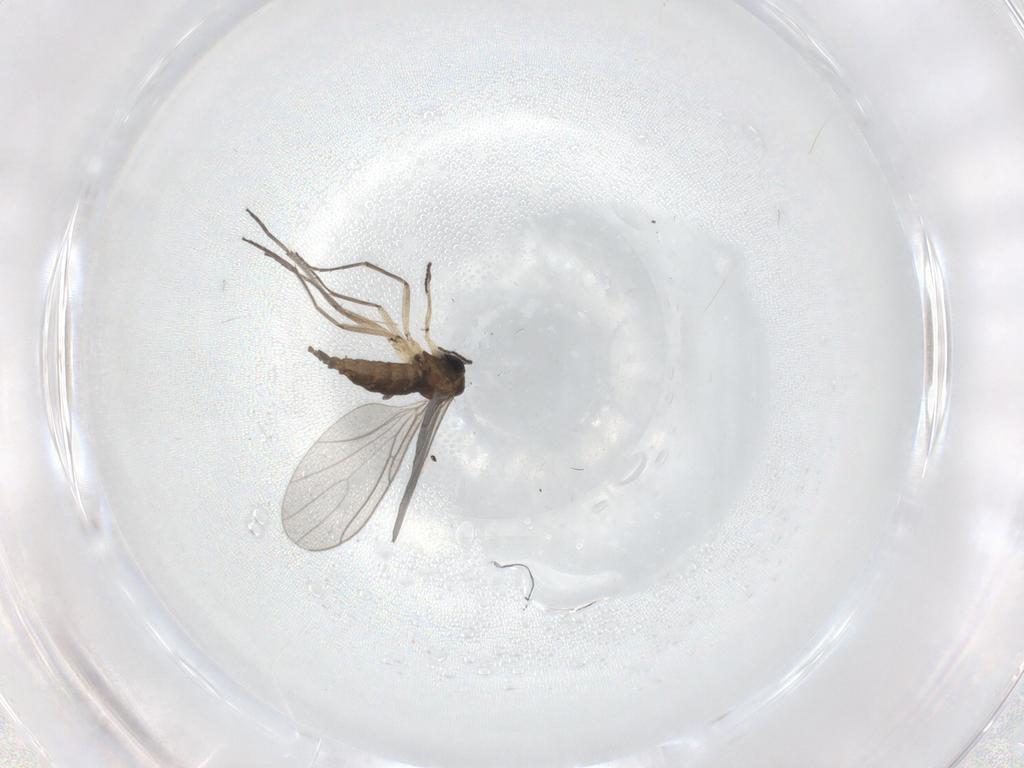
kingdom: Animalia
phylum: Arthropoda
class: Insecta
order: Diptera
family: Sciaridae
